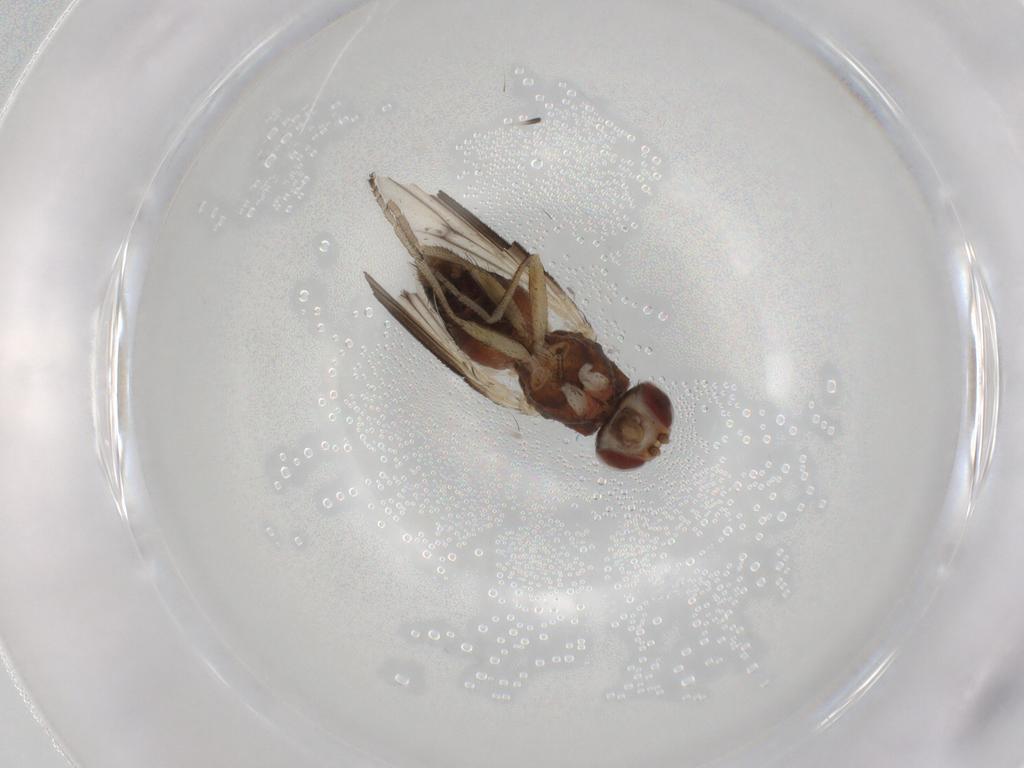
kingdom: Animalia
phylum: Arthropoda
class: Insecta
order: Diptera
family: Heleomyzidae
